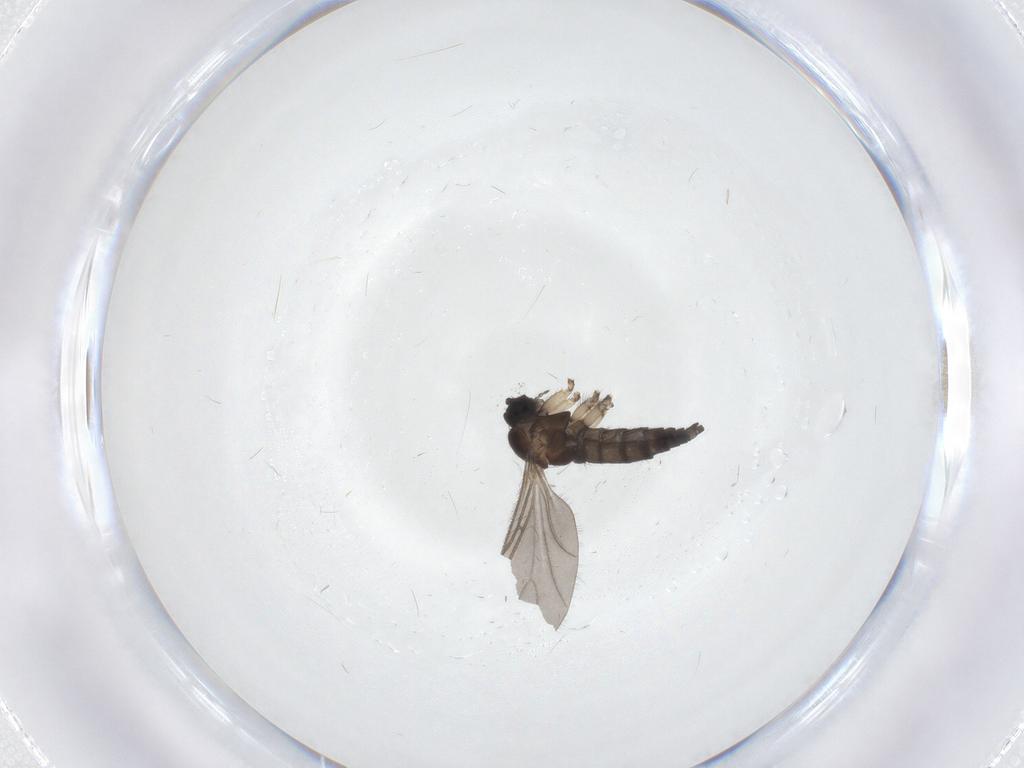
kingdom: Animalia
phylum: Arthropoda
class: Insecta
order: Diptera
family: Sciaridae
